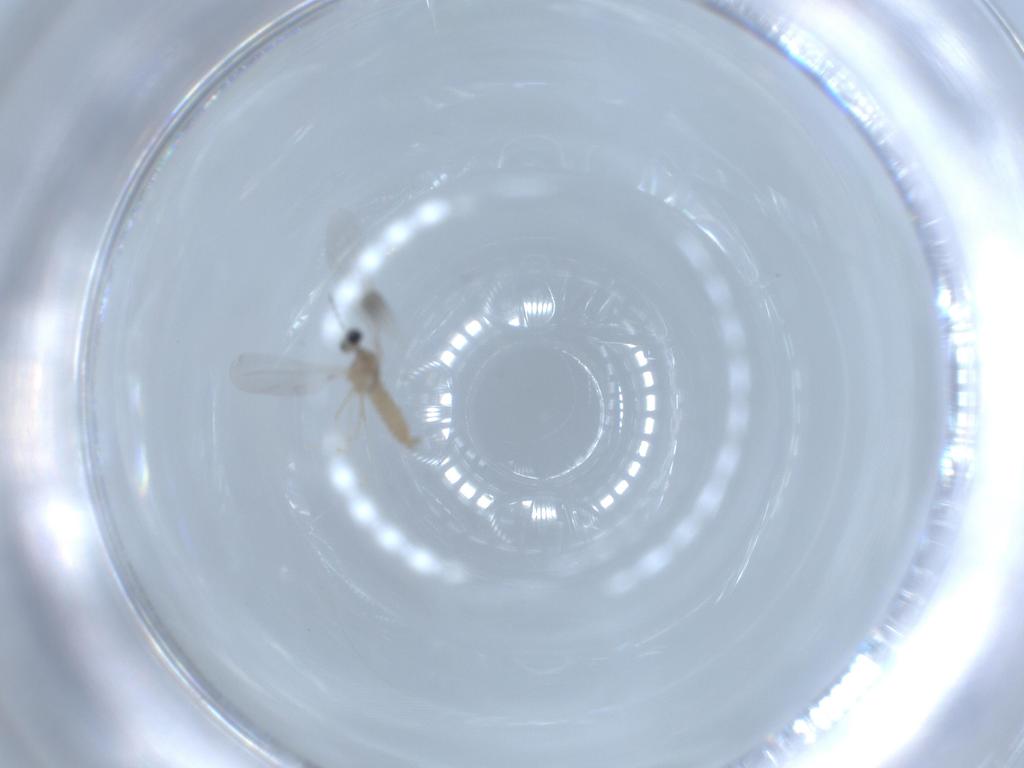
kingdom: Animalia
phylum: Arthropoda
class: Insecta
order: Diptera
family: Cecidomyiidae
